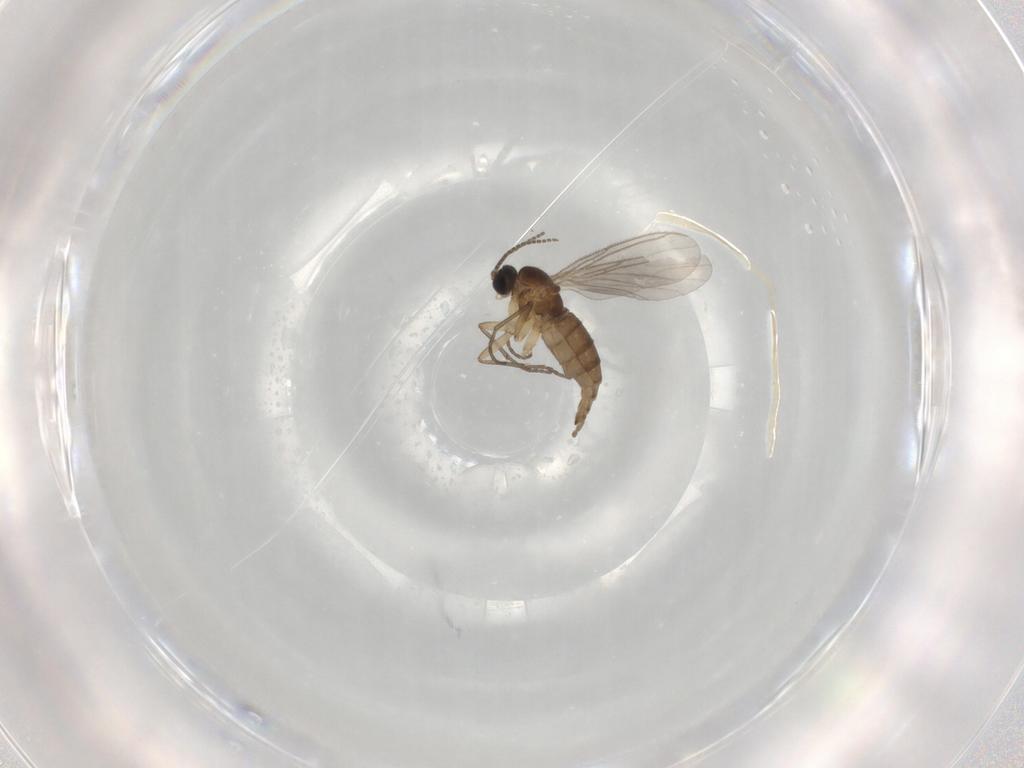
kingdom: Animalia
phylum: Arthropoda
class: Insecta
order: Diptera
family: Sciaridae
